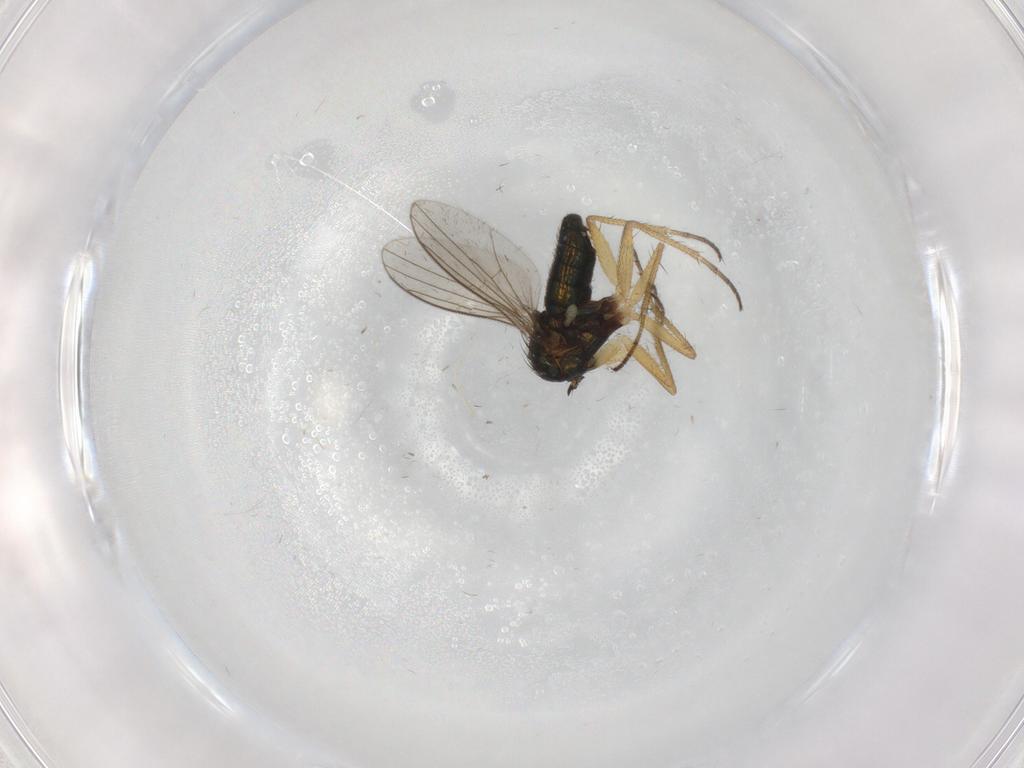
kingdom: Animalia
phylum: Arthropoda
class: Insecta
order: Diptera
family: Dolichopodidae
